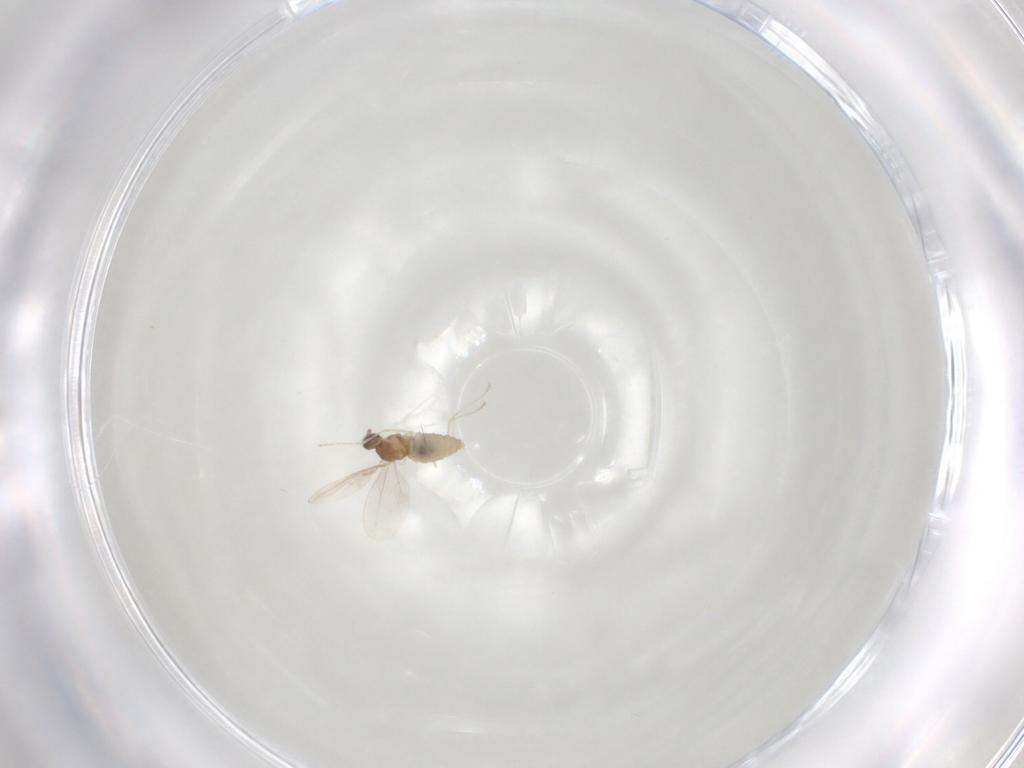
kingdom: Animalia
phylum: Arthropoda
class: Insecta
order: Diptera
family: Cecidomyiidae
